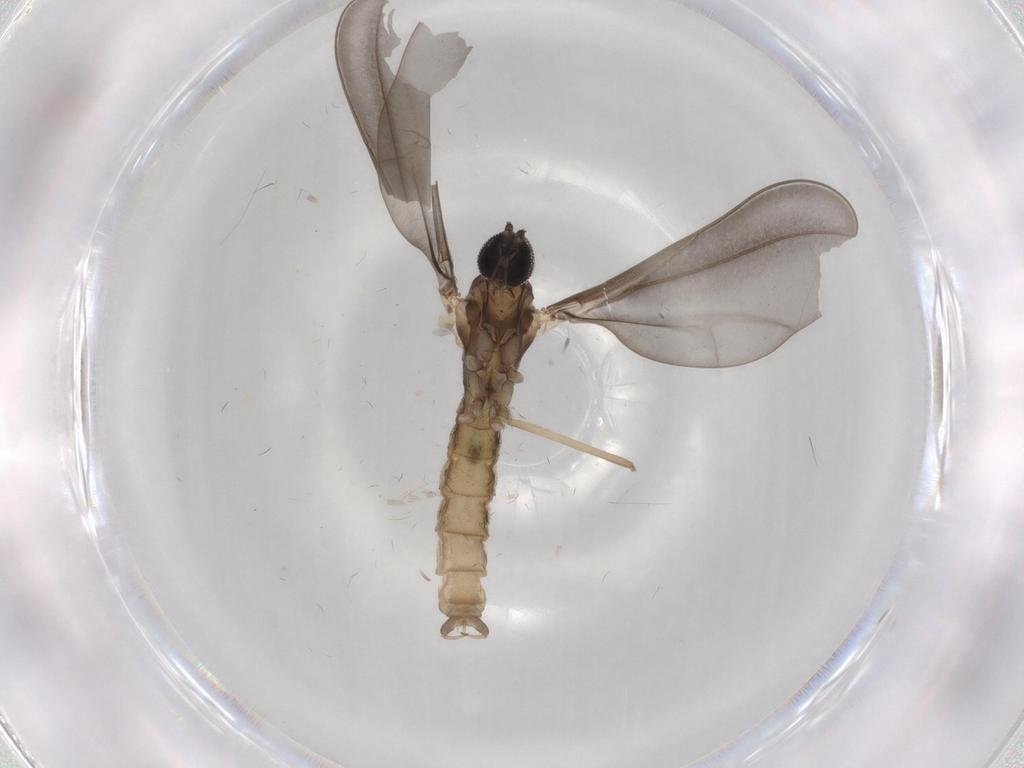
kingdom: Animalia
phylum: Arthropoda
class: Insecta
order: Diptera
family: Cecidomyiidae
